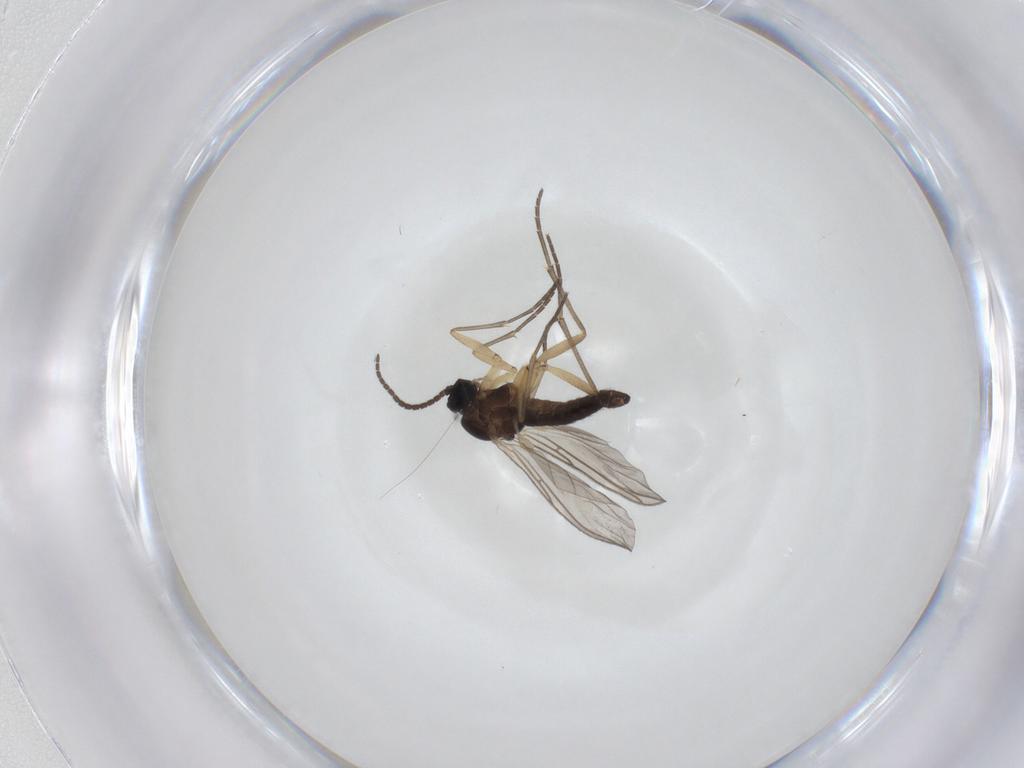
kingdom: Animalia
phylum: Arthropoda
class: Insecta
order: Diptera
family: Sciaridae
